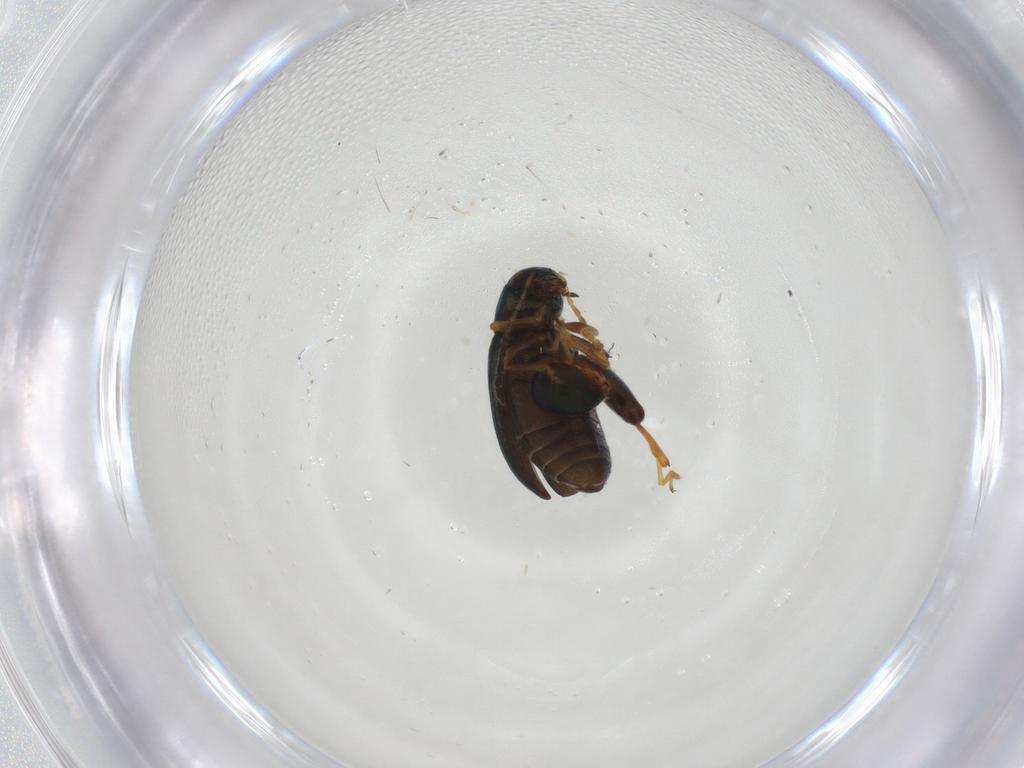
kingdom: Animalia
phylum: Arthropoda
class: Insecta
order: Coleoptera
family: Chrysomelidae
